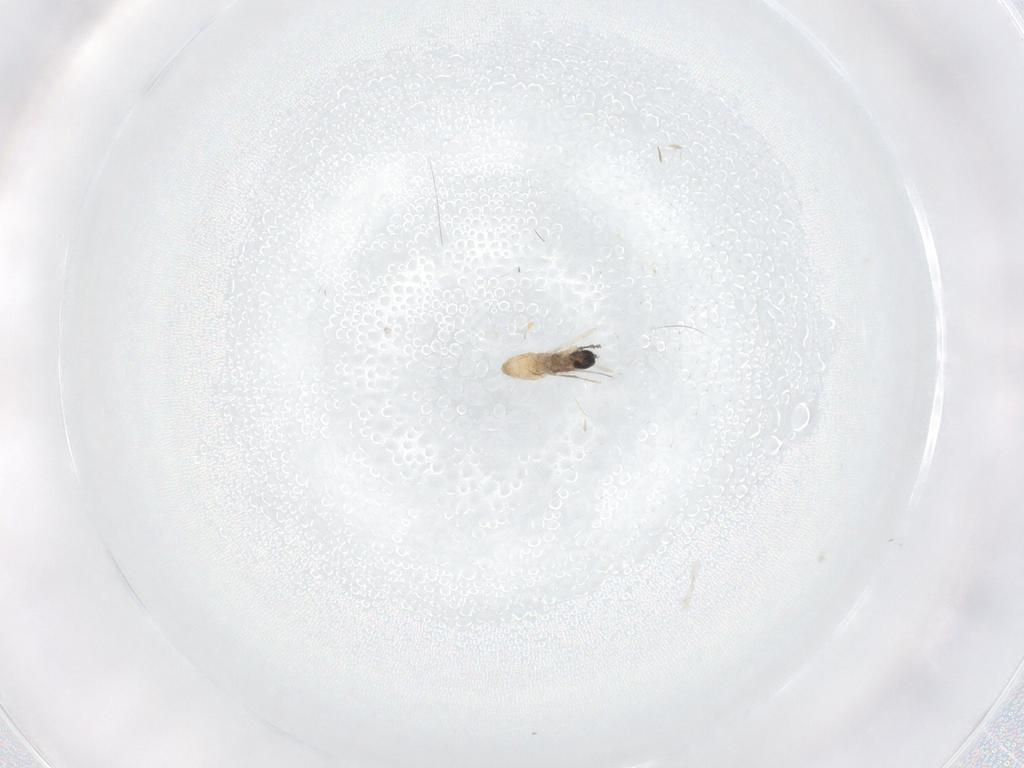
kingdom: Animalia
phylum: Arthropoda
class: Insecta
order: Diptera
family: Cecidomyiidae
